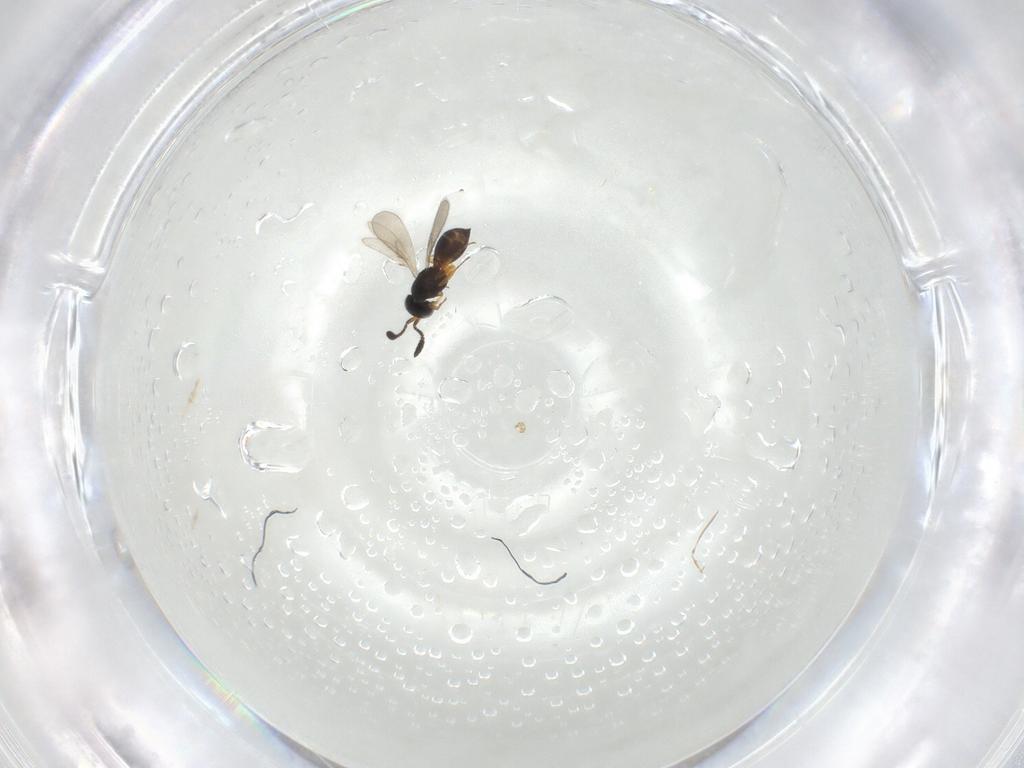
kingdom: Animalia
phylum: Arthropoda
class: Insecta
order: Hymenoptera
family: Scelionidae
